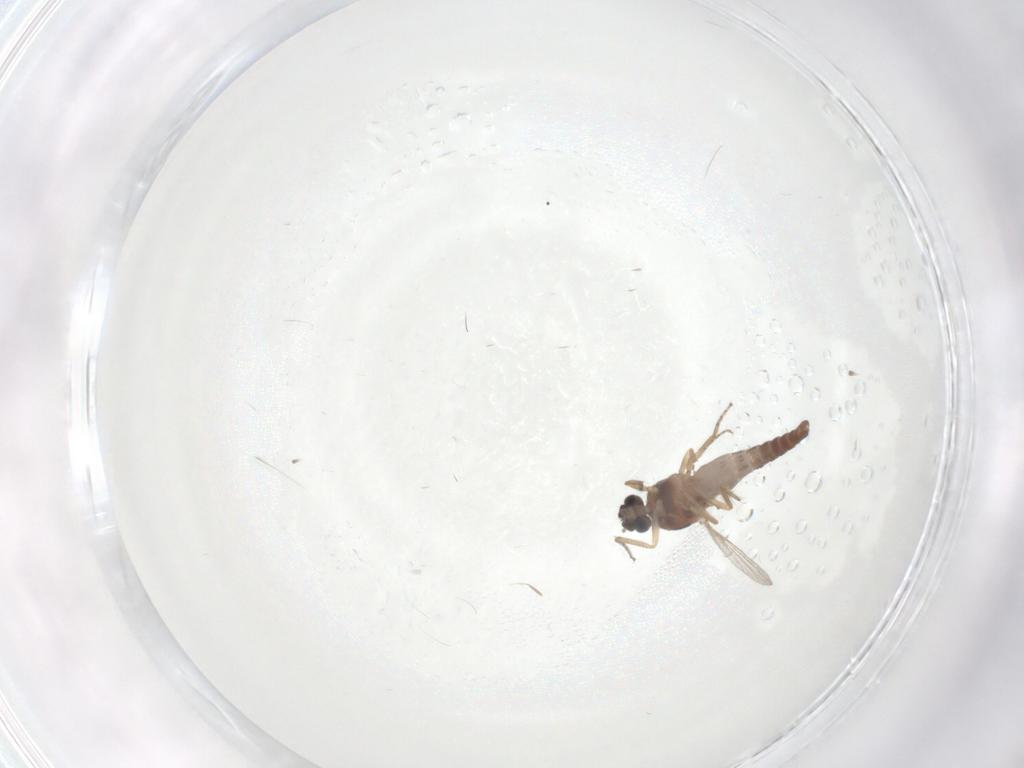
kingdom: Animalia
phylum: Arthropoda
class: Insecta
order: Diptera
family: Ceratopogonidae
